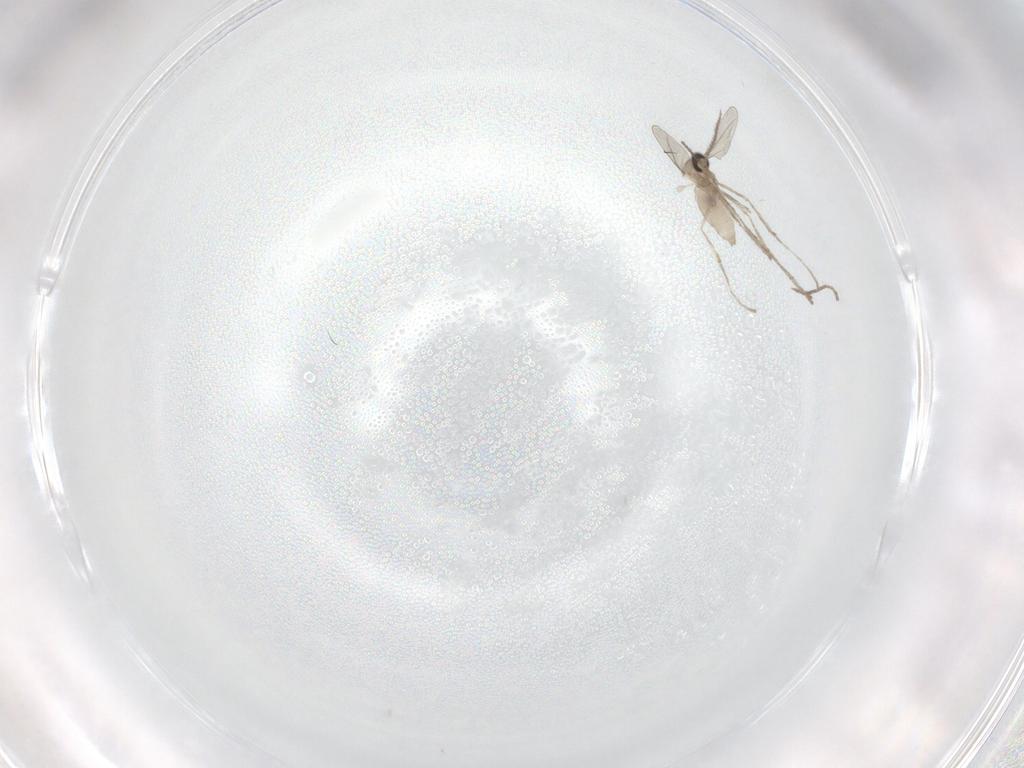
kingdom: Animalia
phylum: Arthropoda
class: Insecta
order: Diptera
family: Cecidomyiidae
